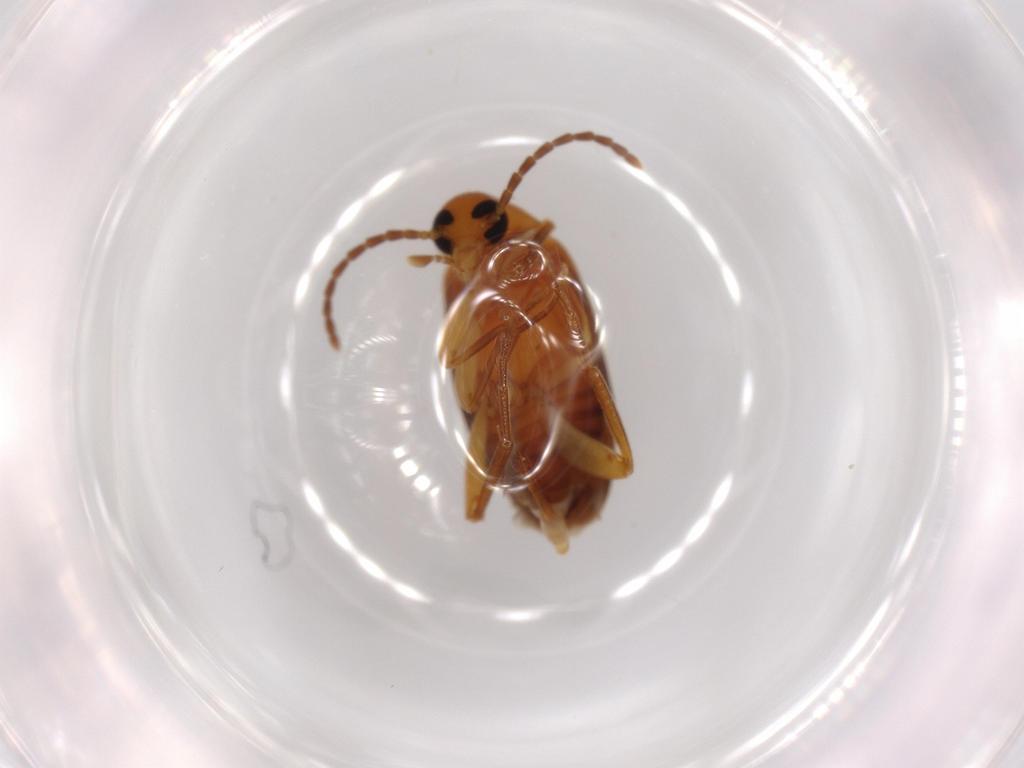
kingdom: Animalia
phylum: Arthropoda
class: Insecta
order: Coleoptera
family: Scraptiidae
